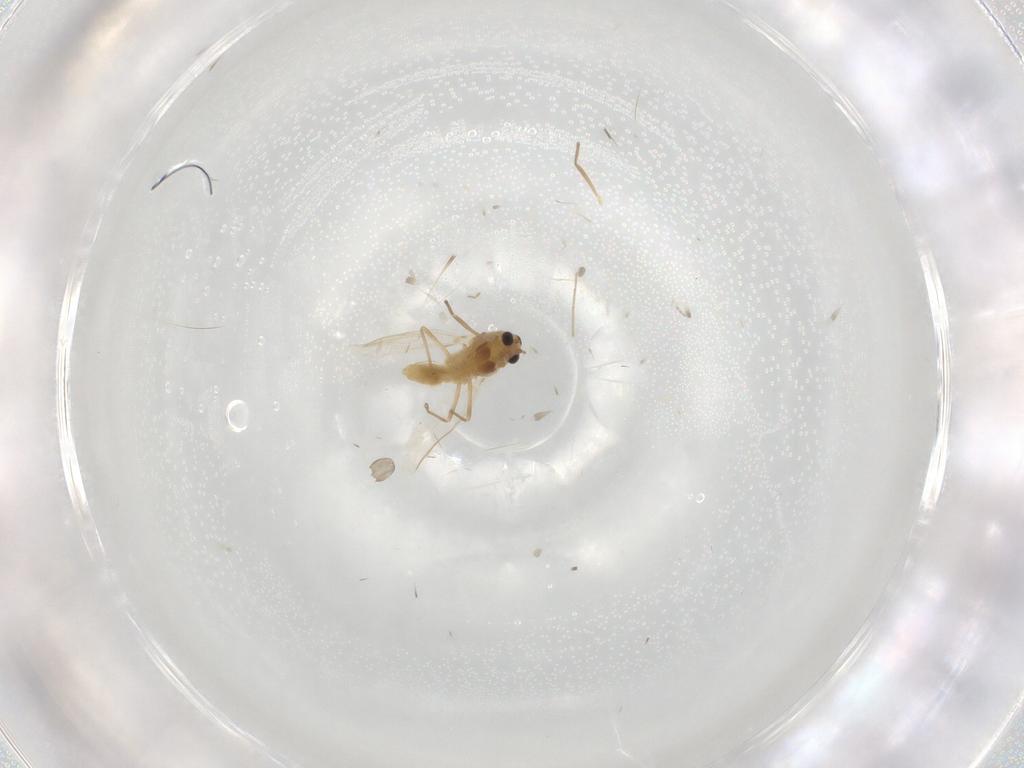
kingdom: Animalia
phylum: Arthropoda
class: Insecta
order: Diptera
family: Chironomidae
